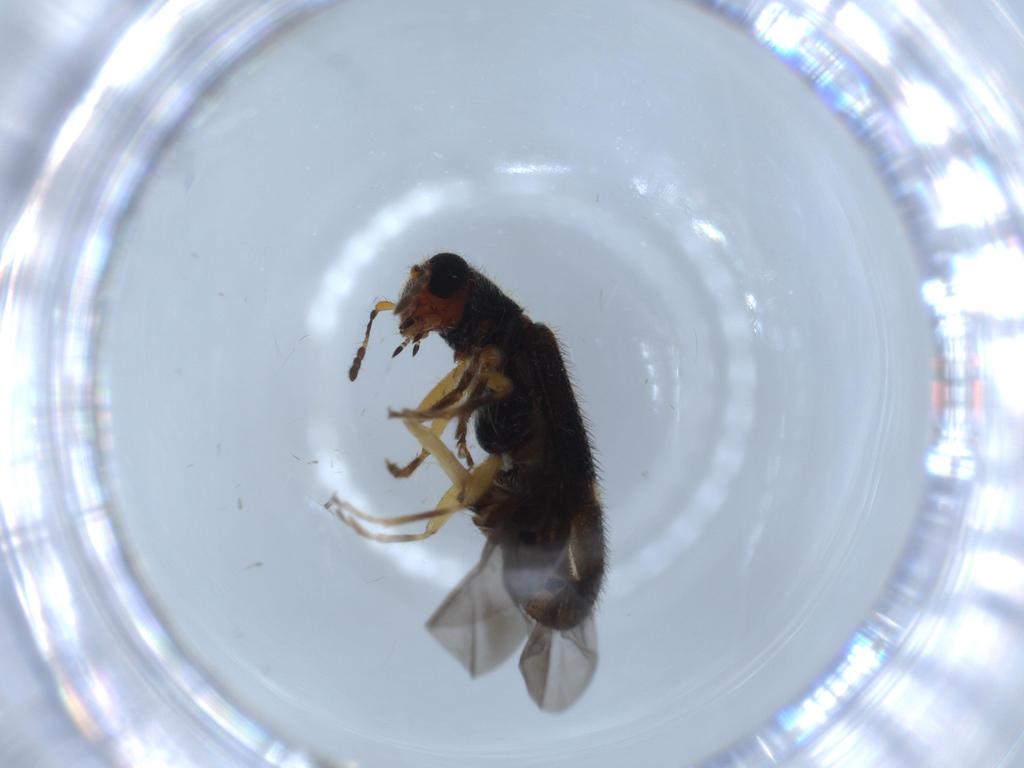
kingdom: Animalia
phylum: Arthropoda
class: Insecta
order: Coleoptera
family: Cleridae
